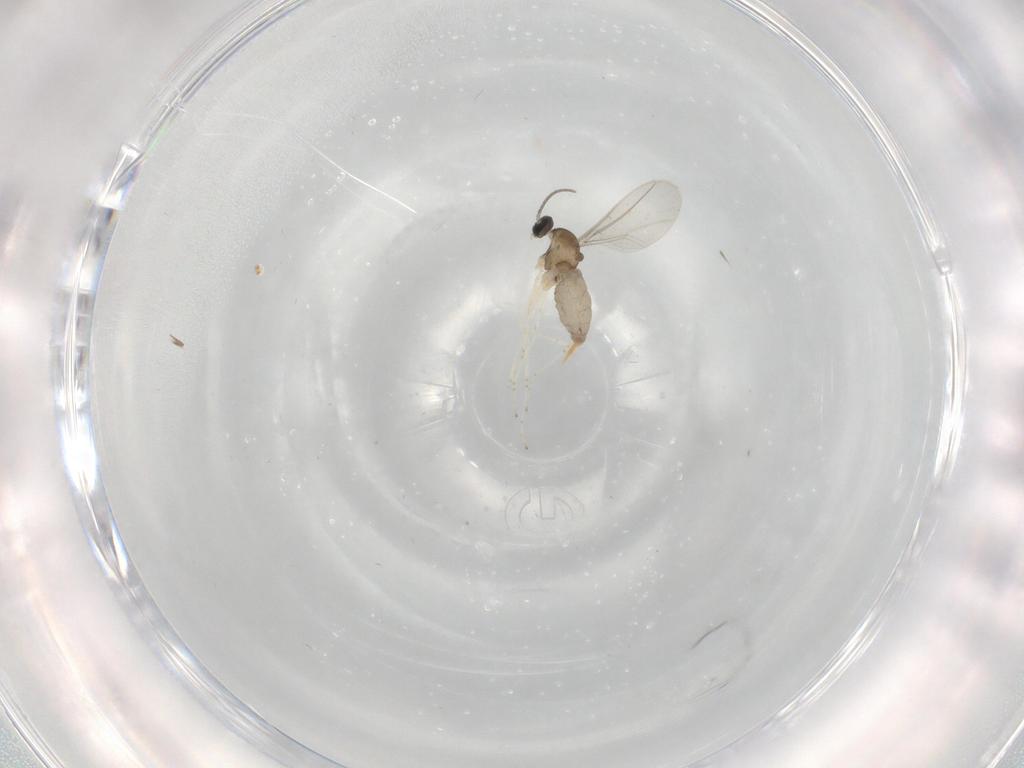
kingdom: Animalia
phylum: Arthropoda
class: Insecta
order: Diptera
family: Cecidomyiidae
